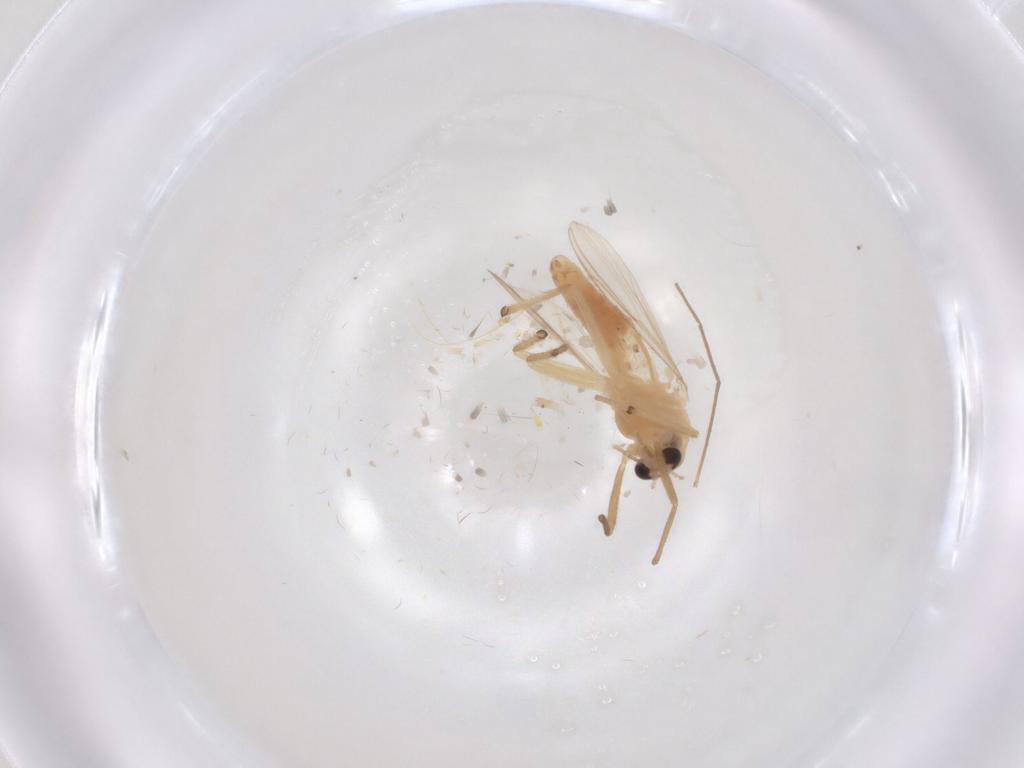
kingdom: Animalia
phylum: Arthropoda
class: Insecta
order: Diptera
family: Chironomidae
